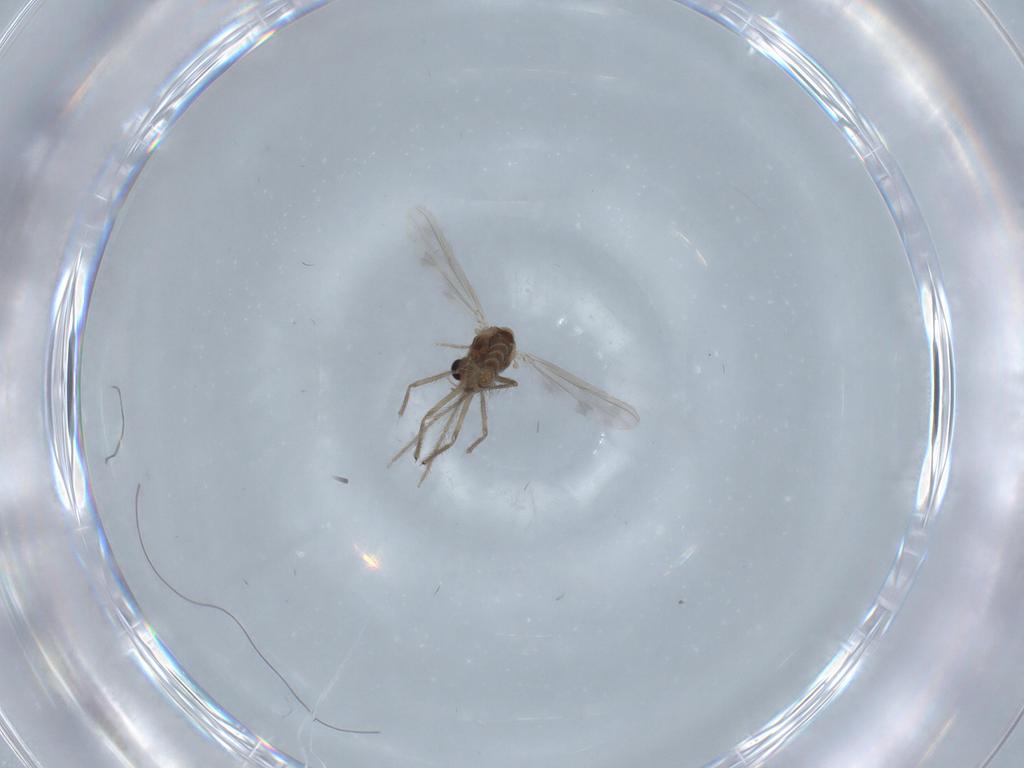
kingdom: Animalia
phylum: Arthropoda
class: Insecta
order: Diptera
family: Chironomidae
